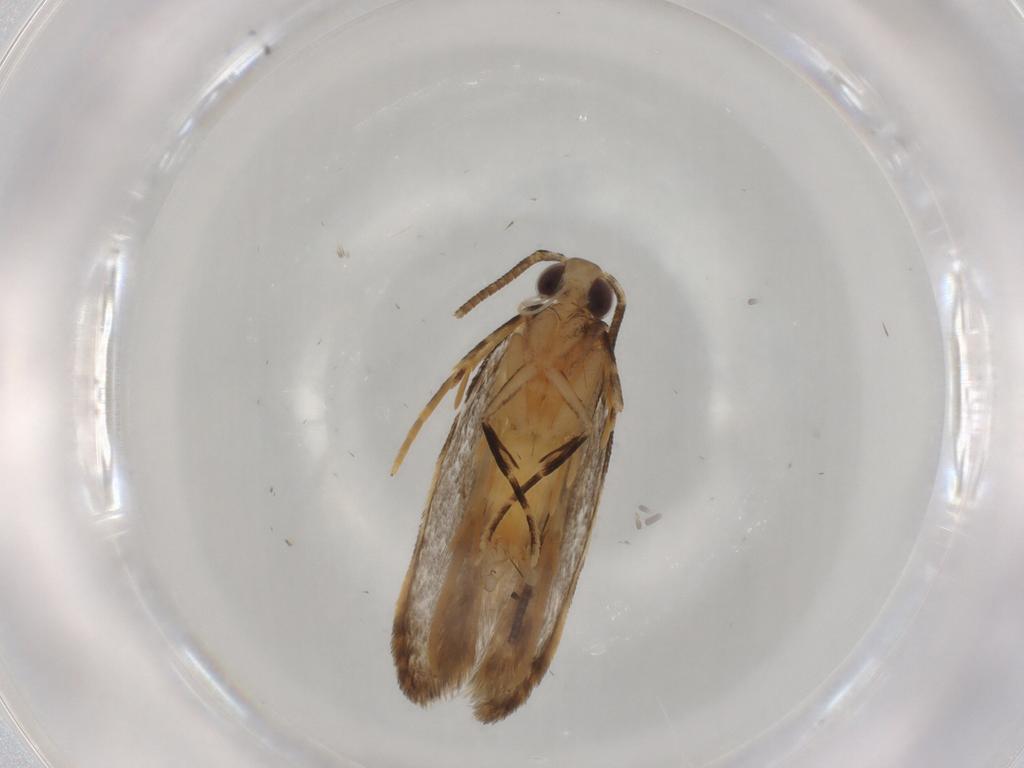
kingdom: Animalia
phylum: Arthropoda
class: Insecta
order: Lepidoptera
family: Autostichidae
